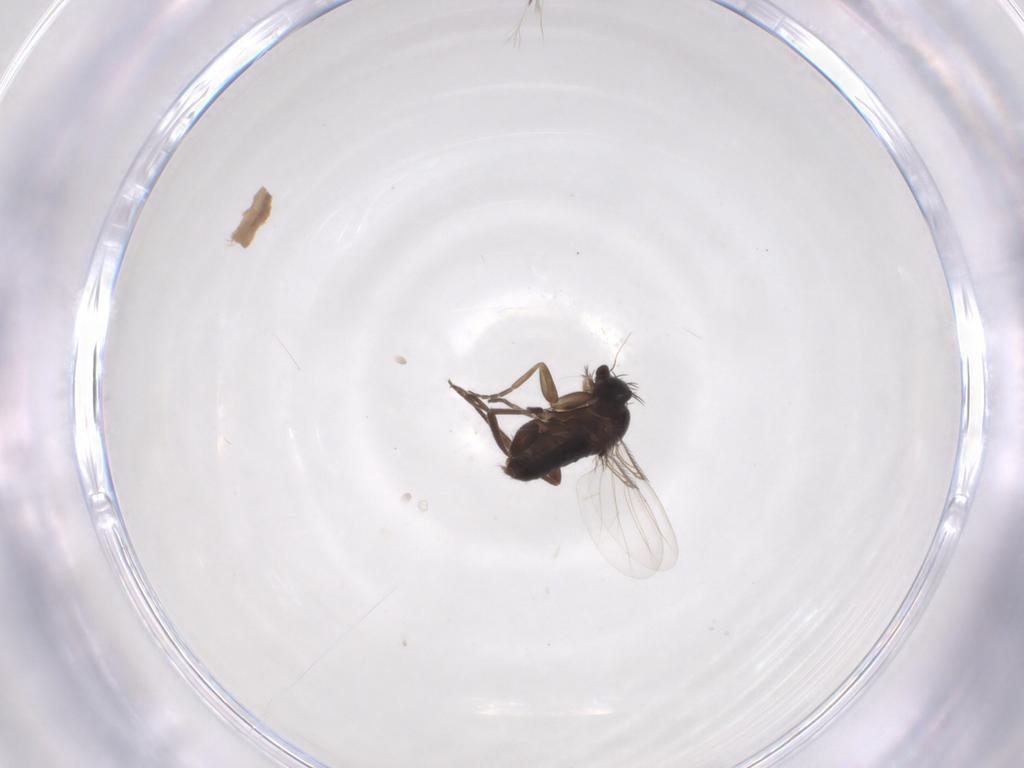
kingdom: Animalia
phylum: Arthropoda
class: Insecta
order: Diptera
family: Phoridae
